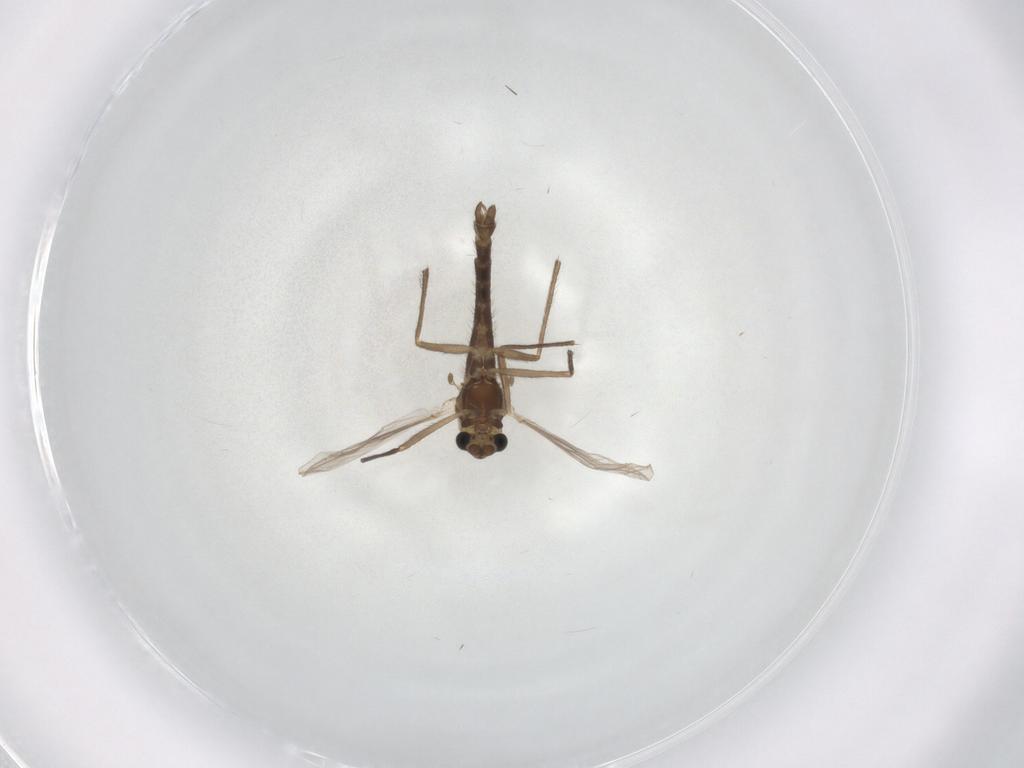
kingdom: Animalia
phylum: Arthropoda
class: Insecta
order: Diptera
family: Chironomidae
